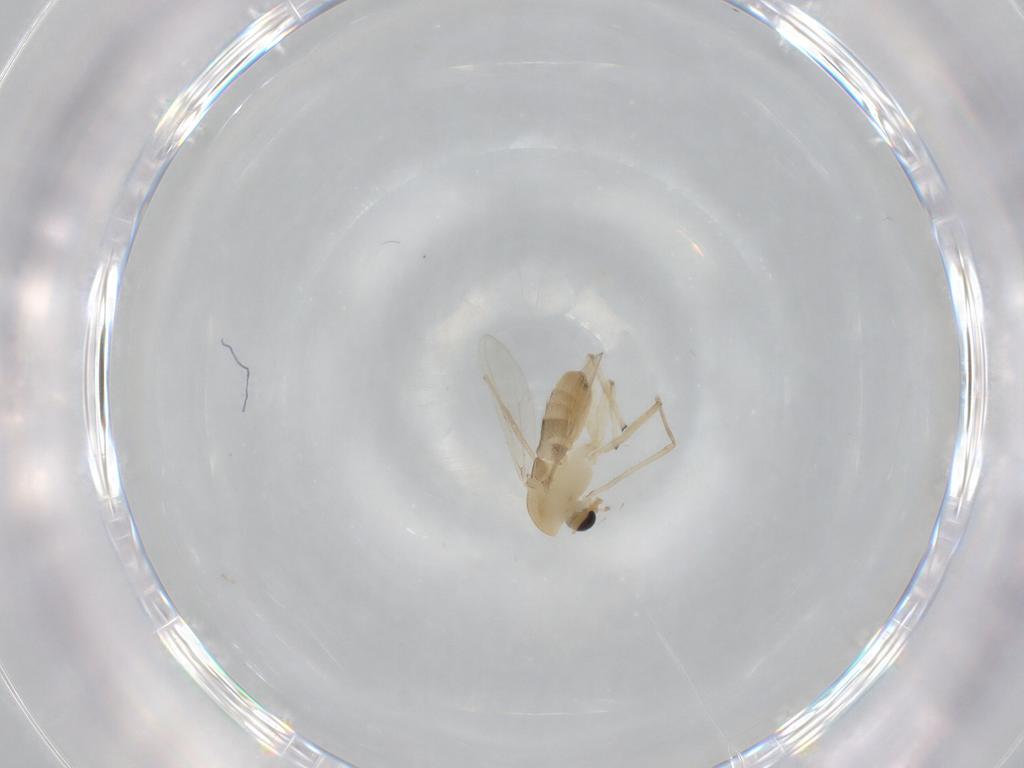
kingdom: Animalia
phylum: Arthropoda
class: Insecta
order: Diptera
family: Chironomidae
